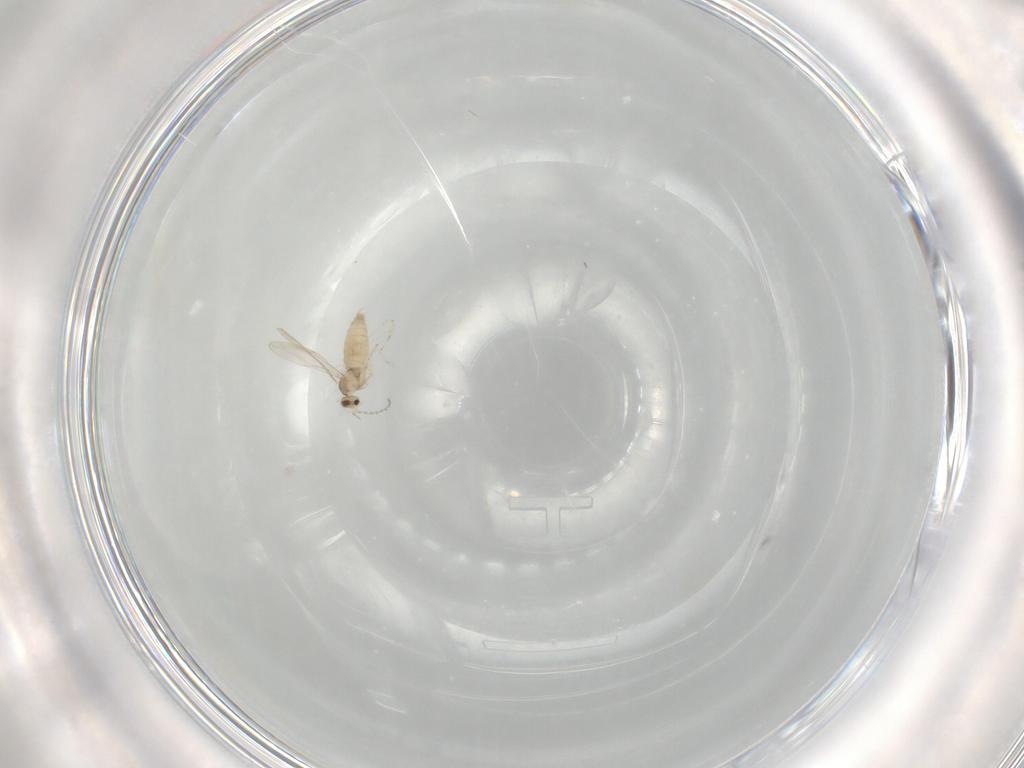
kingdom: Animalia
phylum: Arthropoda
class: Insecta
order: Diptera
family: Cecidomyiidae
